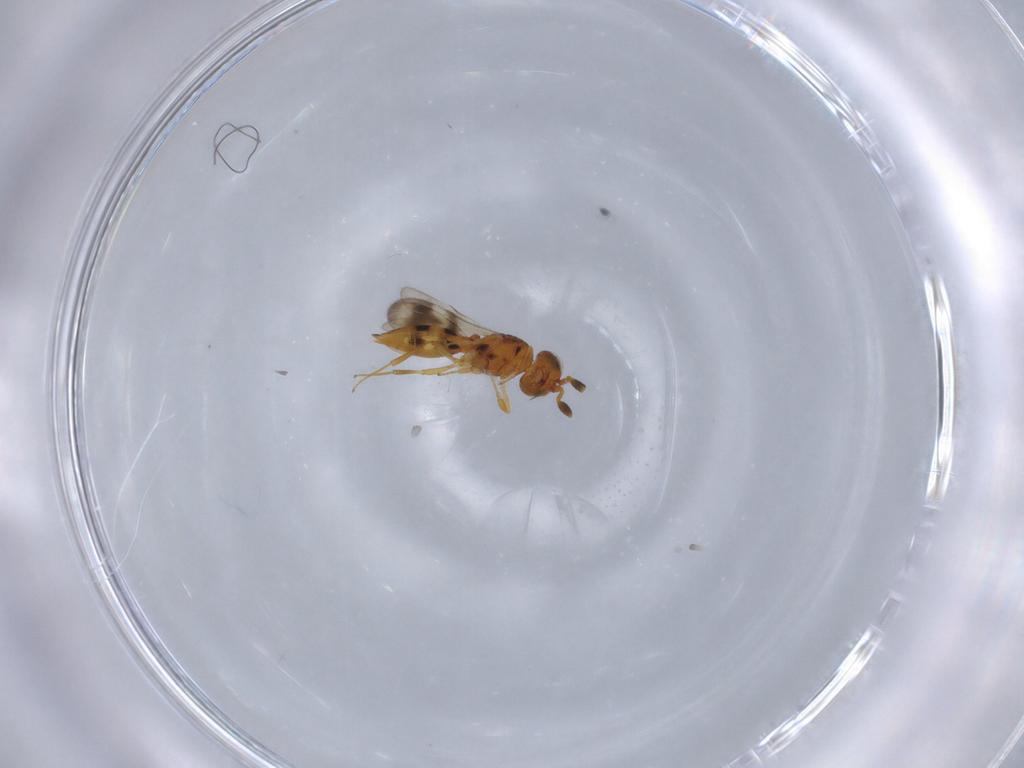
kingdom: Animalia
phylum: Arthropoda
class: Insecta
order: Hymenoptera
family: Scelionidae
